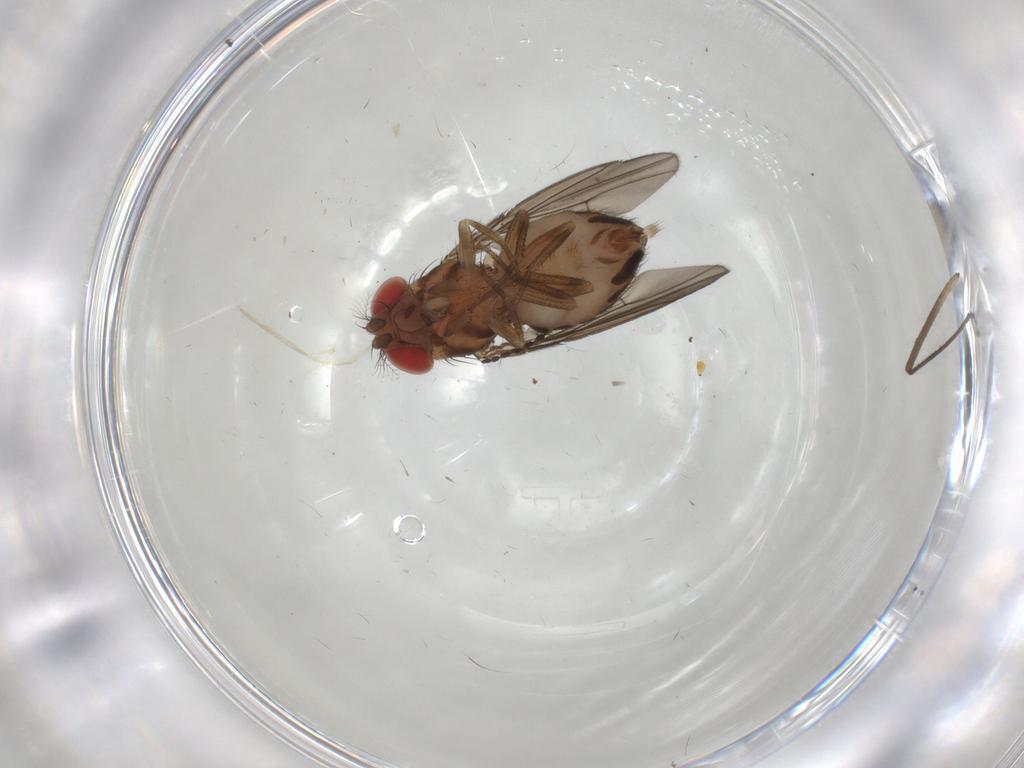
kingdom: Animalia
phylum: Arthropoda
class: Insecta
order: Diptera
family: Drosophilidae
